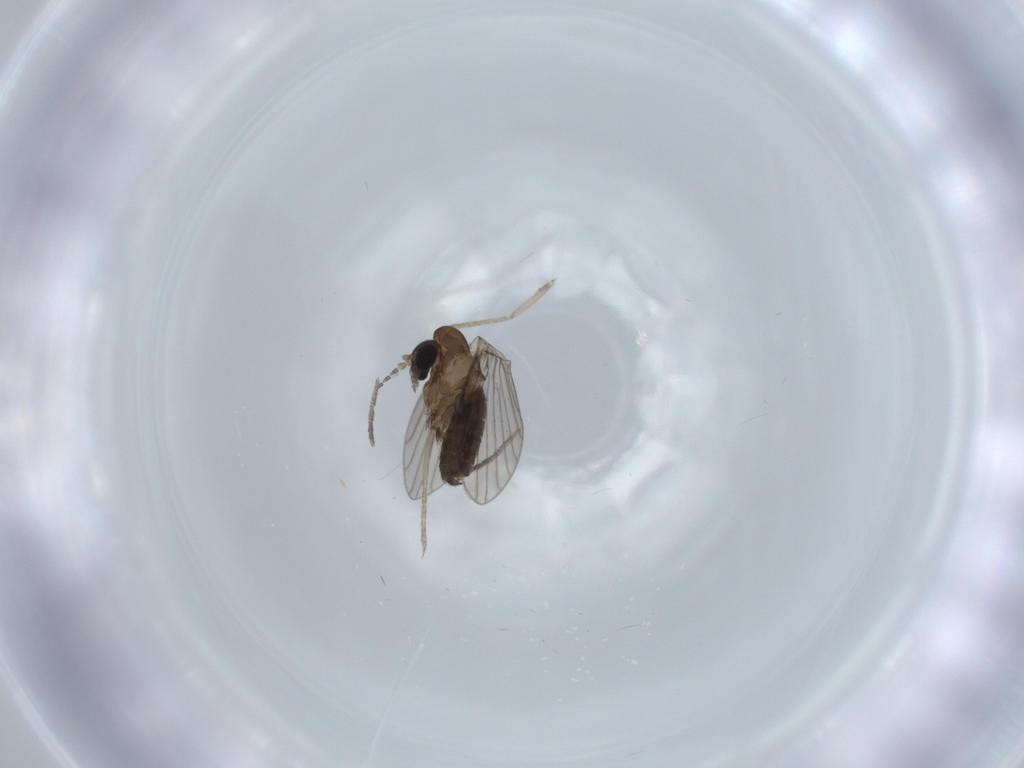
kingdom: Animalia
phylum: Arthropoda
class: Insecta
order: Diptera
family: Psychodidae
